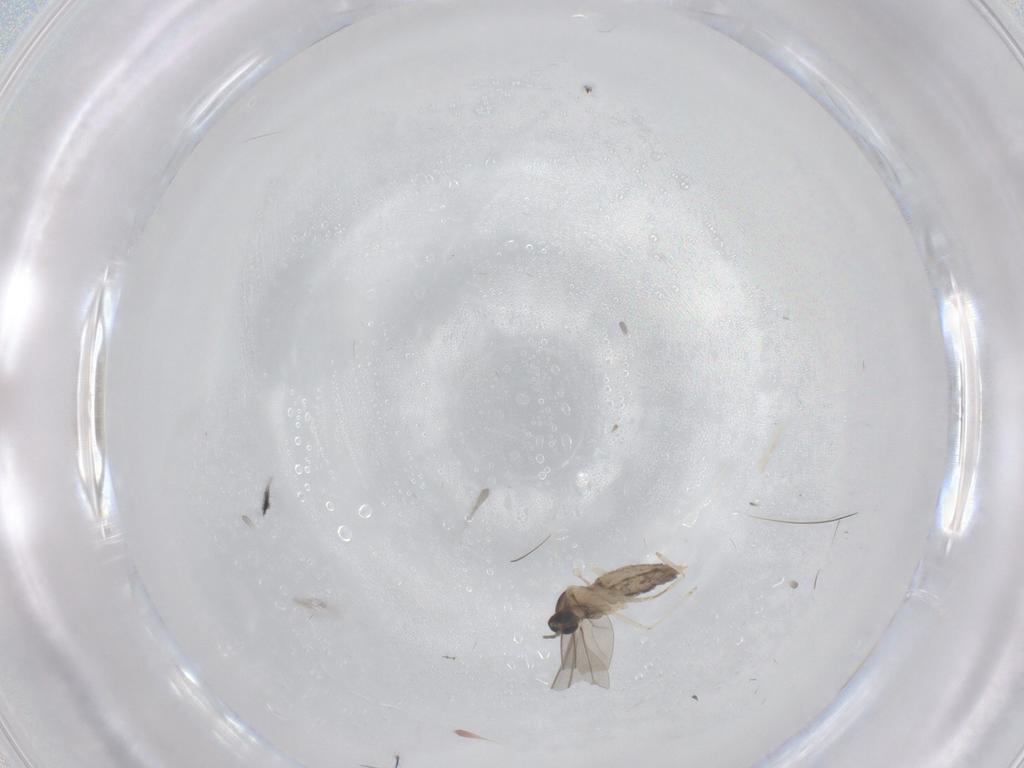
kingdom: Animalia
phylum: Arthropoda
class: Insecta
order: Diptera
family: Cecidomyiidae
